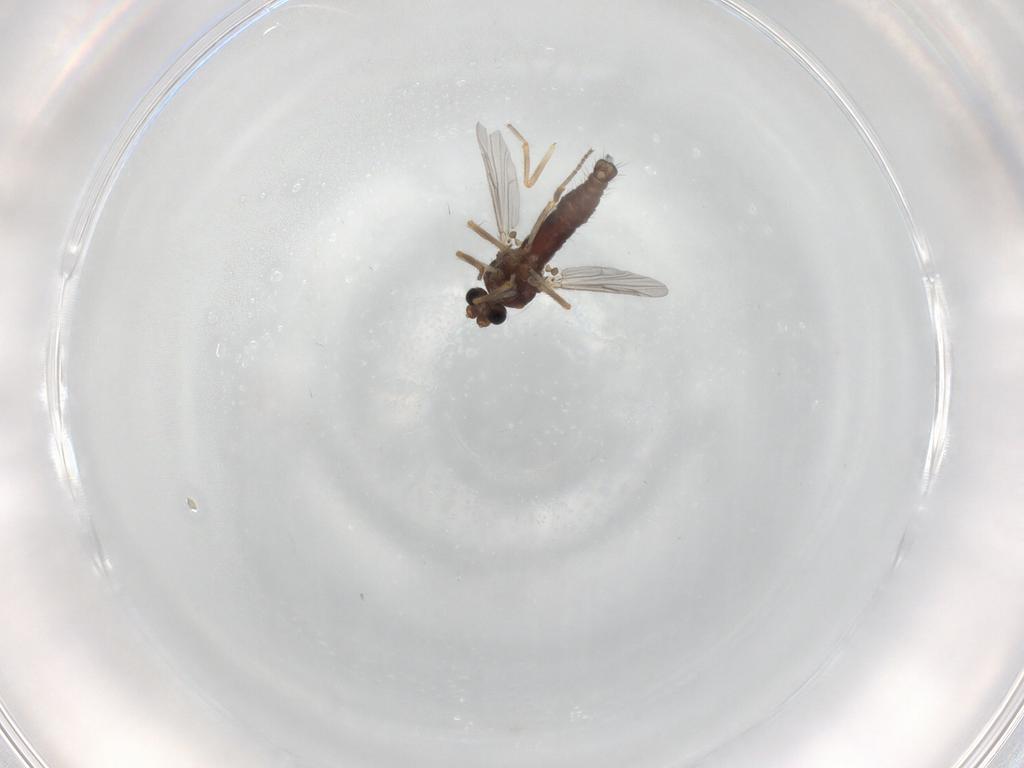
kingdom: Animalia
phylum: Arthropoda
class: Insecta
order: Diptera
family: Ceratopogonidae
